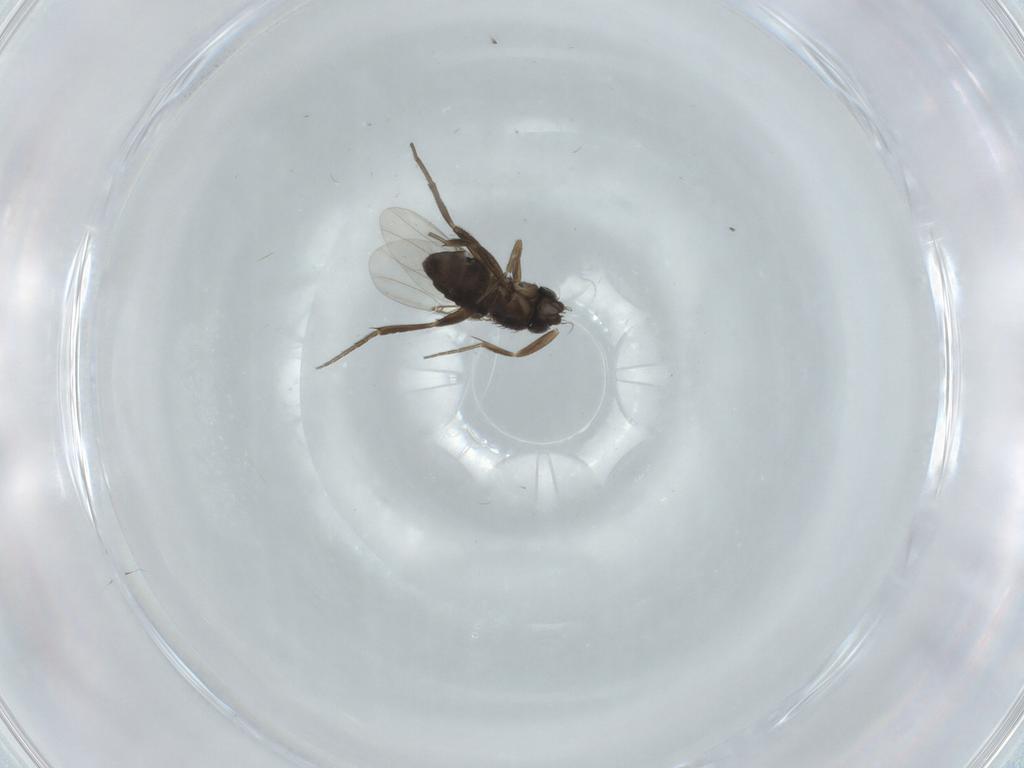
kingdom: Animalia
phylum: Arthropoda
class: Insecta
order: Diptera
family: Phoridae
